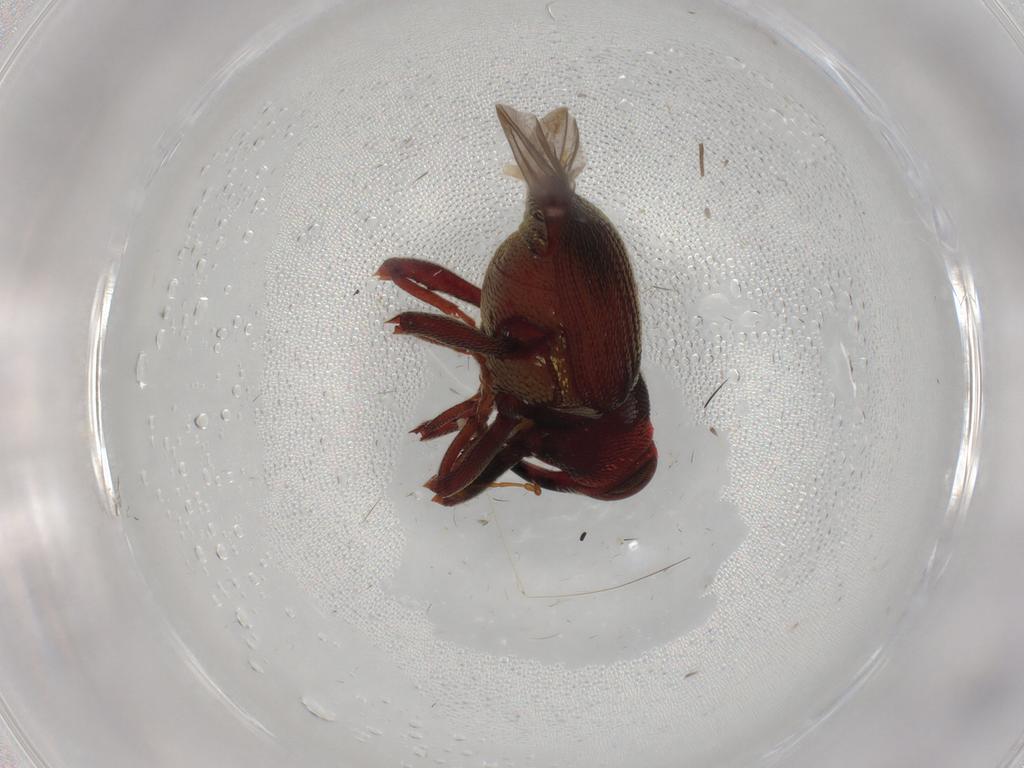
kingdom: Animalia
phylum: Arthropoda
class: Insecta
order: Coleoptera
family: Curculionidae
